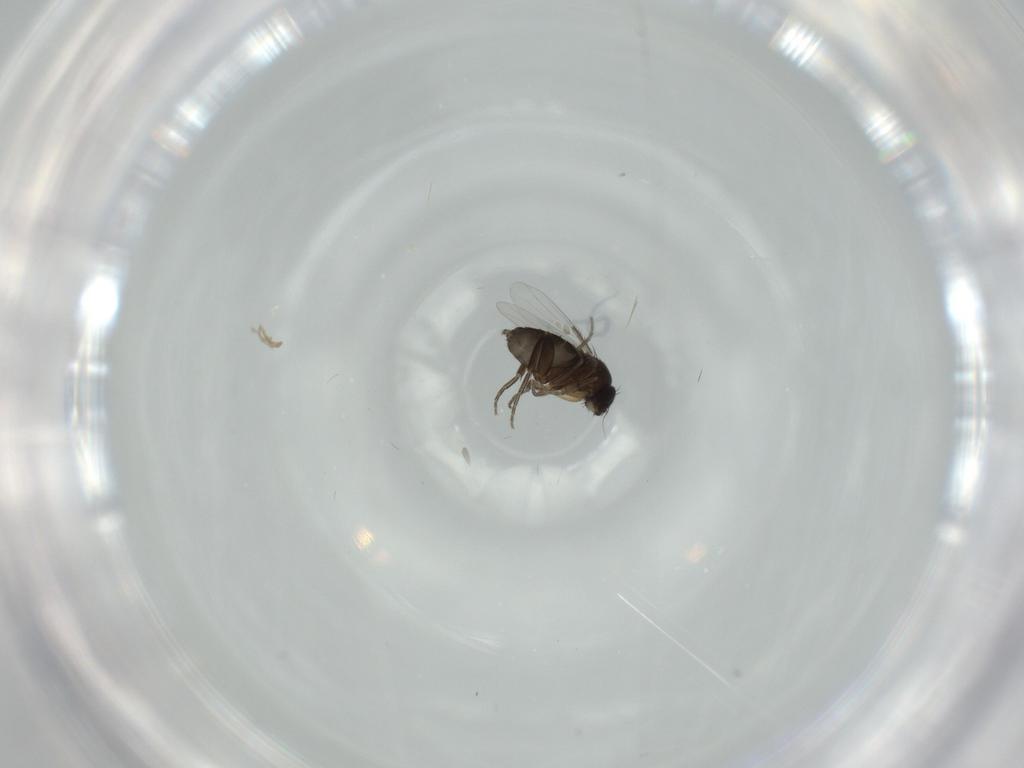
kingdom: Animalia
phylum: Arthropoda
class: Insecta
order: Diptera
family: Phoridae
